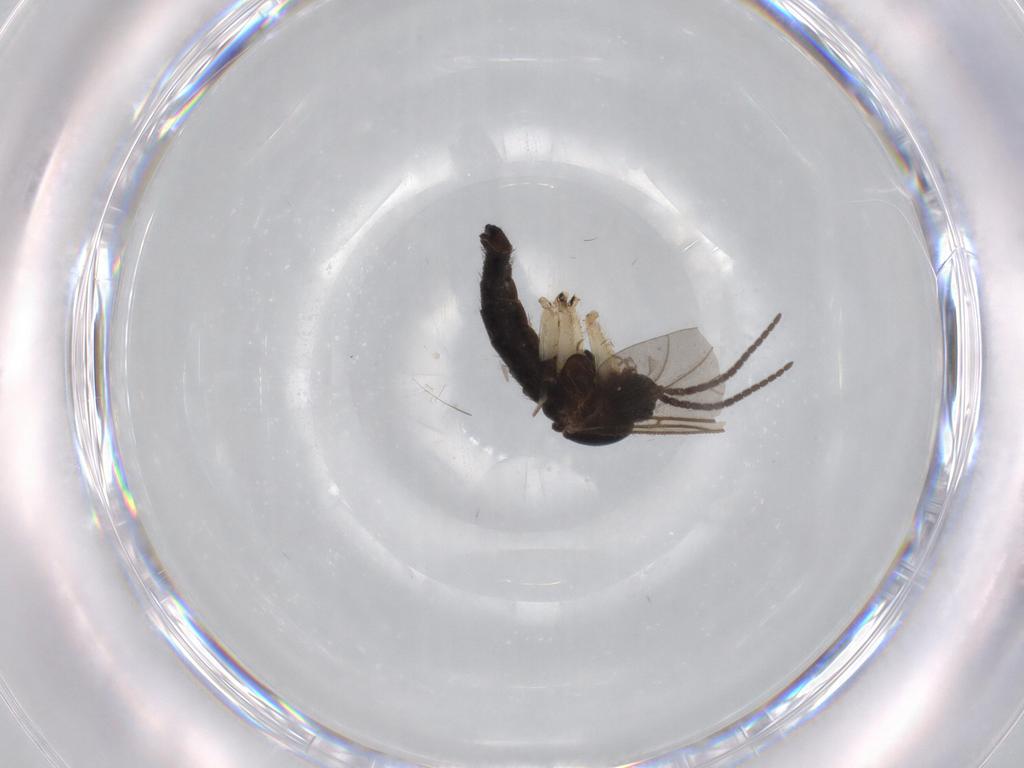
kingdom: Animalia
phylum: Arthropoda
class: Insecta
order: Diptera
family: Sciaridae
